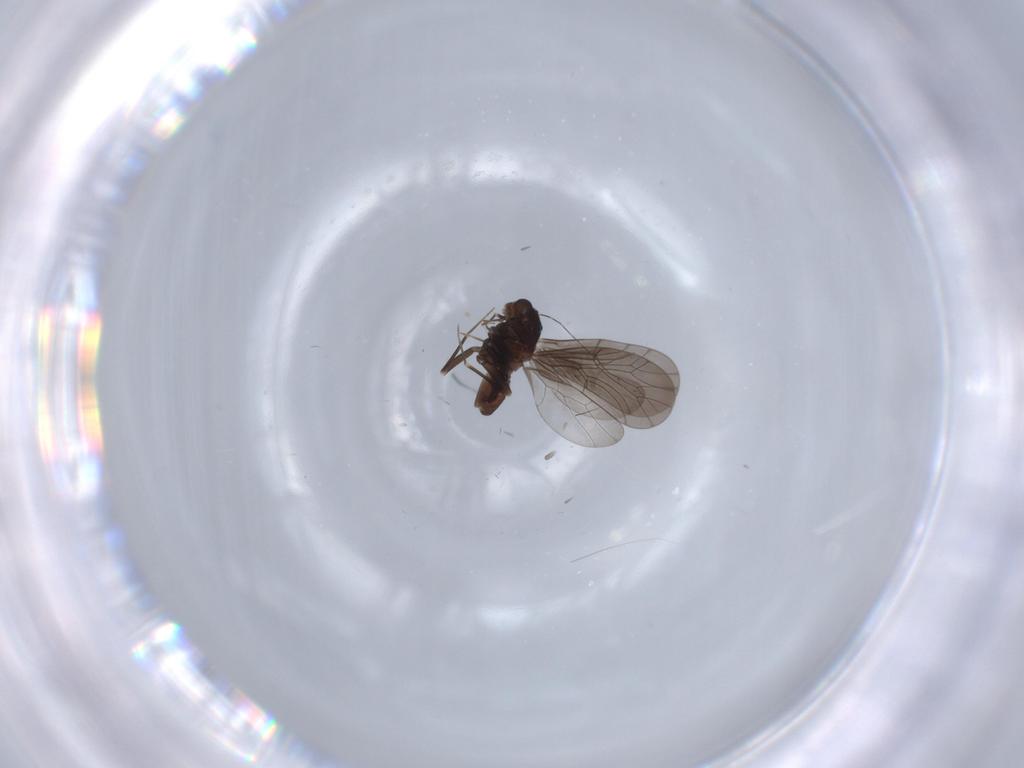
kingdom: Animalia
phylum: Arthropoda
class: Insecta
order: Psocodea
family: Lepidopsocidae
